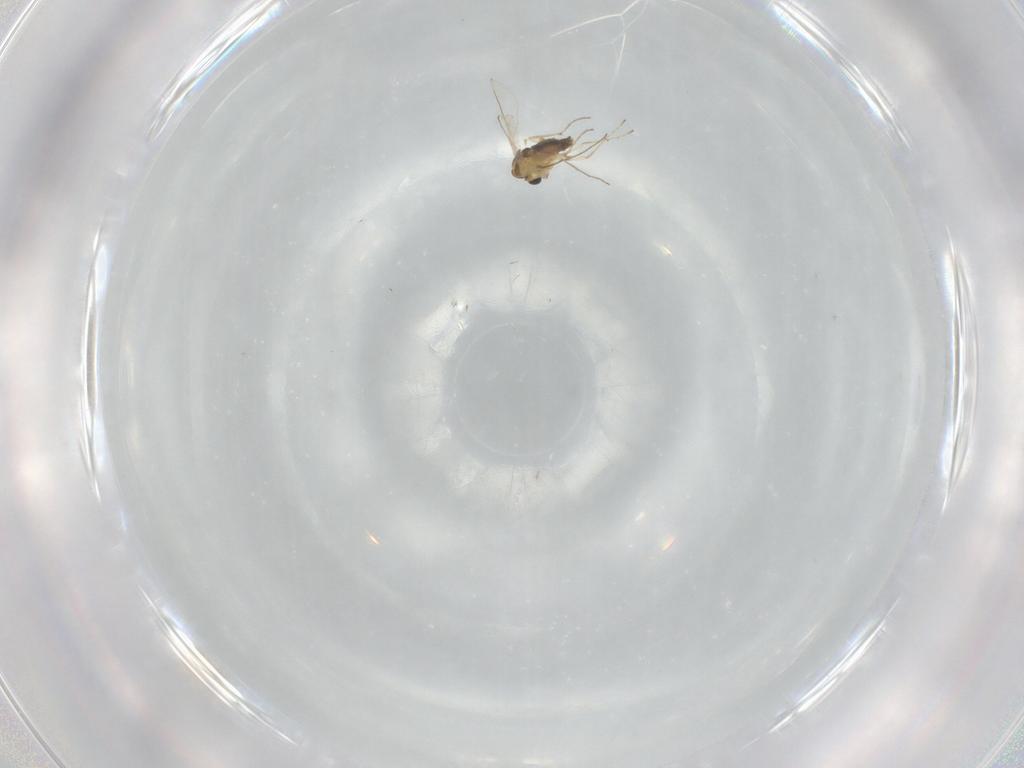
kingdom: Animalia
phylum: Arthropoda
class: Insecta
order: Diptera
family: Chironomidae
